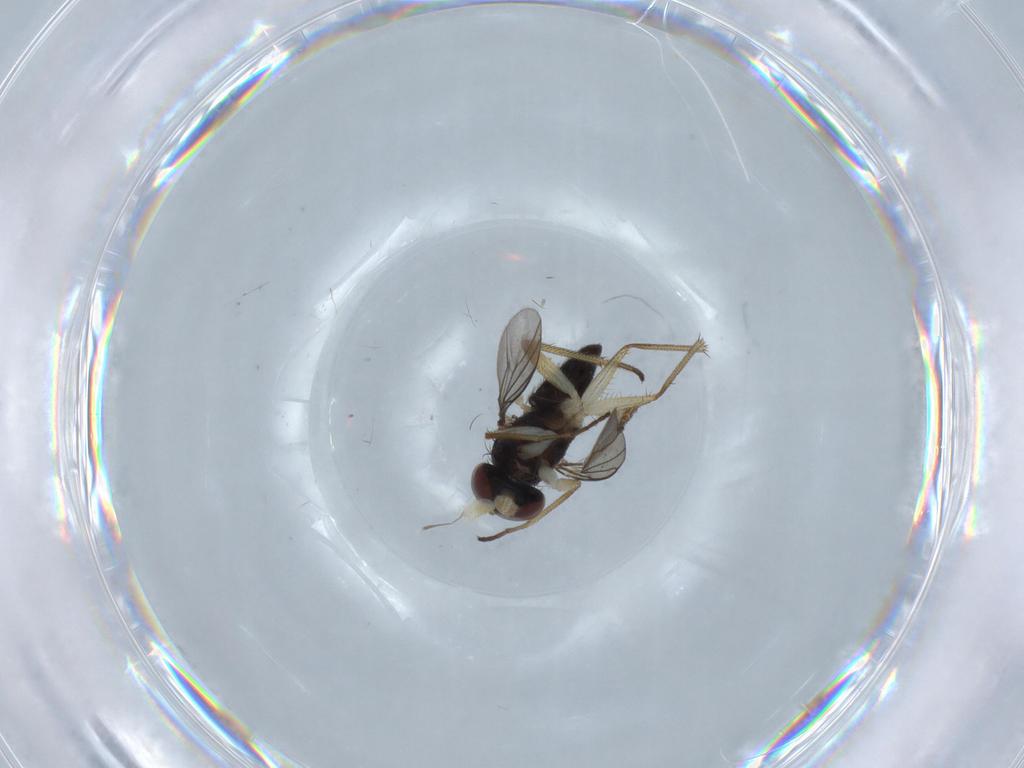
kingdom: Animalia
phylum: Arthropoda
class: Insecta
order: Diptera
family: Dolichopodidae
